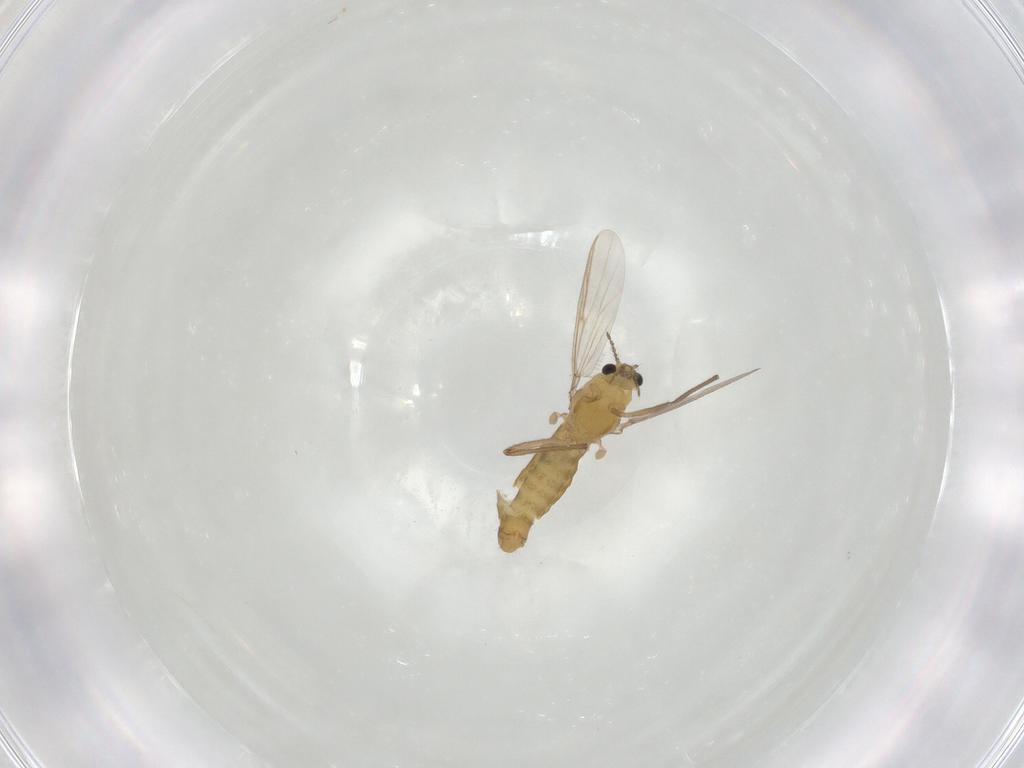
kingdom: Animalia
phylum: Arthropoda
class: Insecta
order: Diptera
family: Chironomidae
